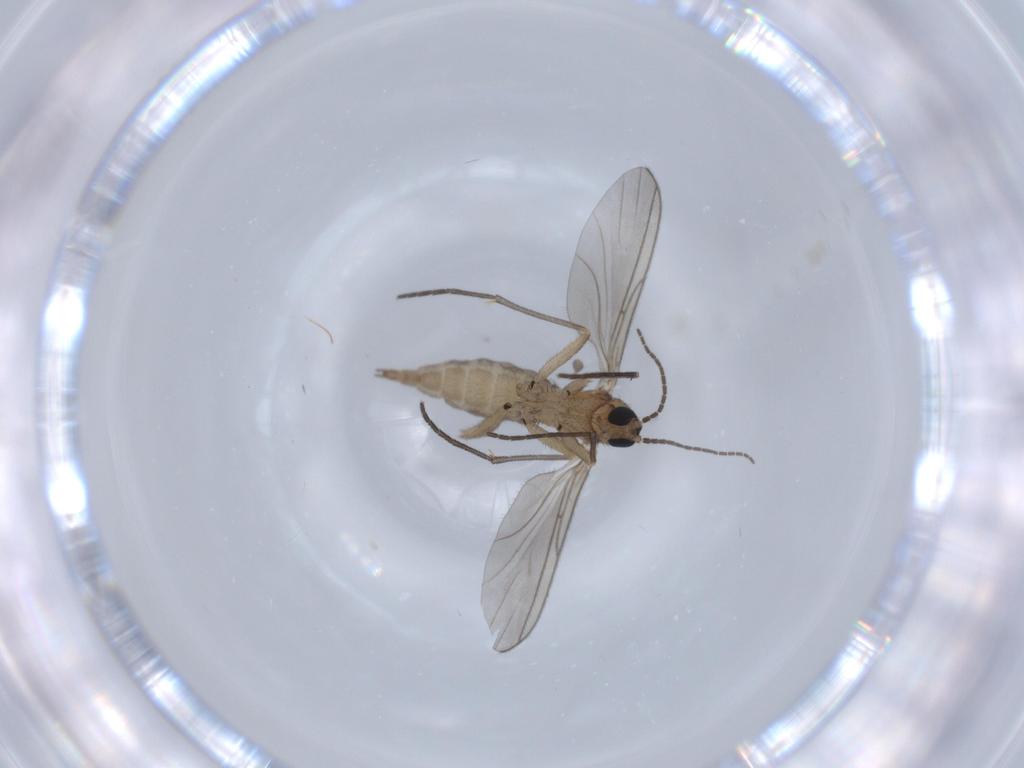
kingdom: Animalia
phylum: Arthropoda
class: Insecta
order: Diptera
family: Sciaridae
